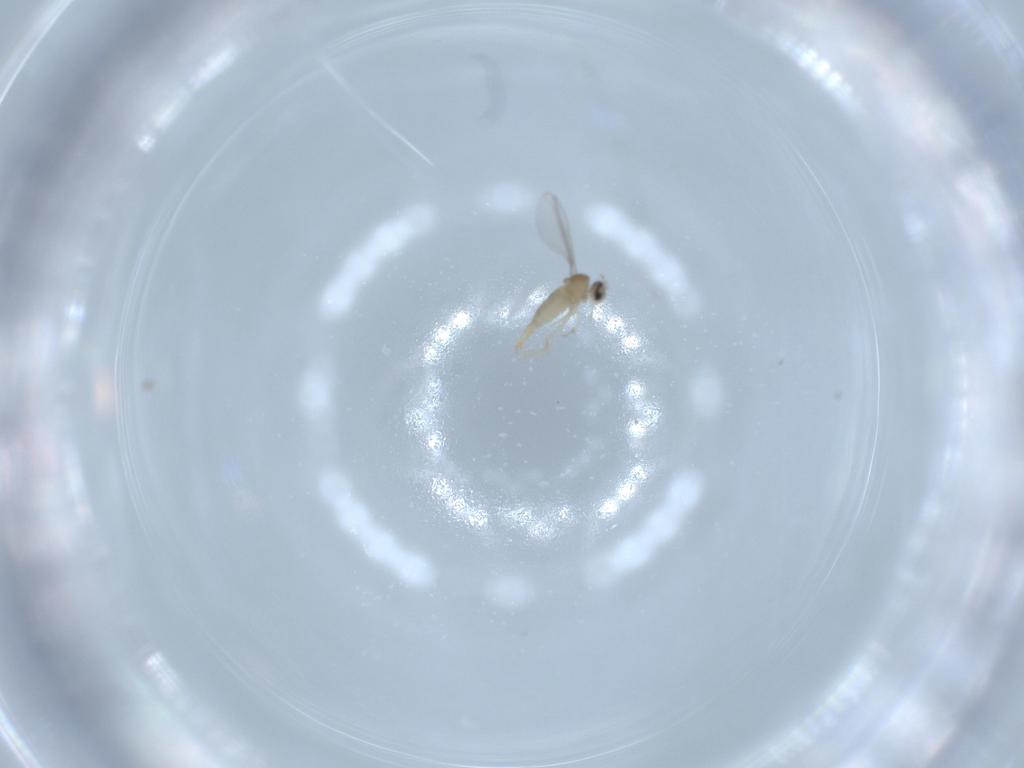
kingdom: Animalia
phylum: Arthropoda
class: Insecta
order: Diptera
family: Cecidomyiidae
